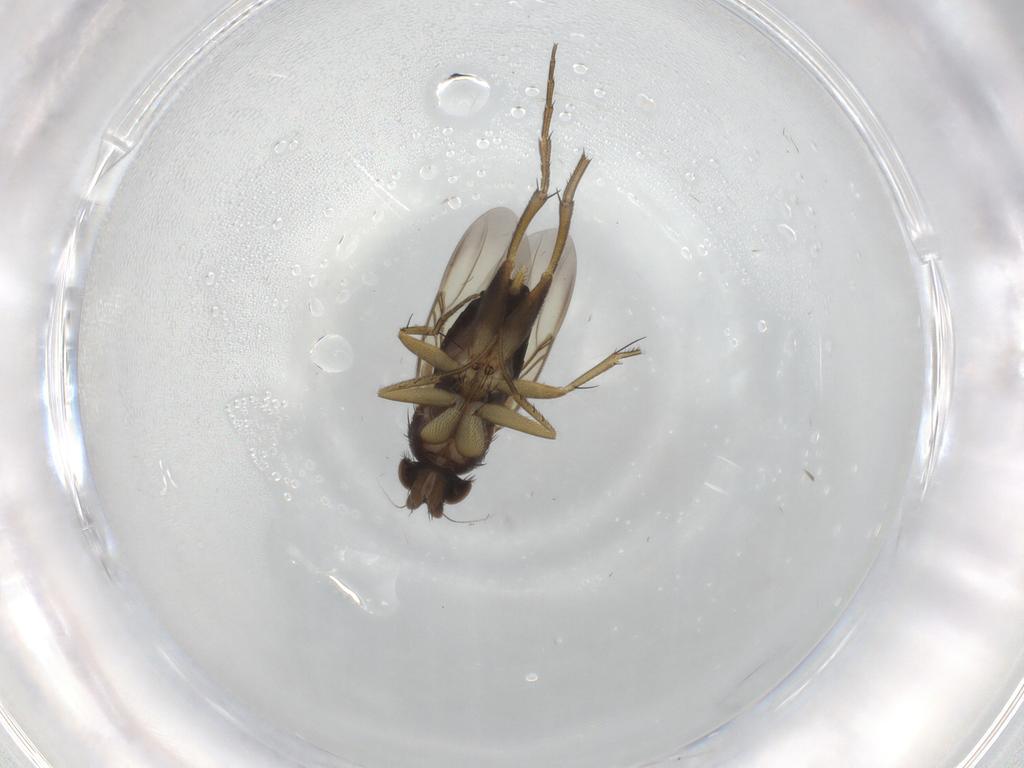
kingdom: Animalia
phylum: Arthropoda
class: Insecta
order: Diptera
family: Phoridae
